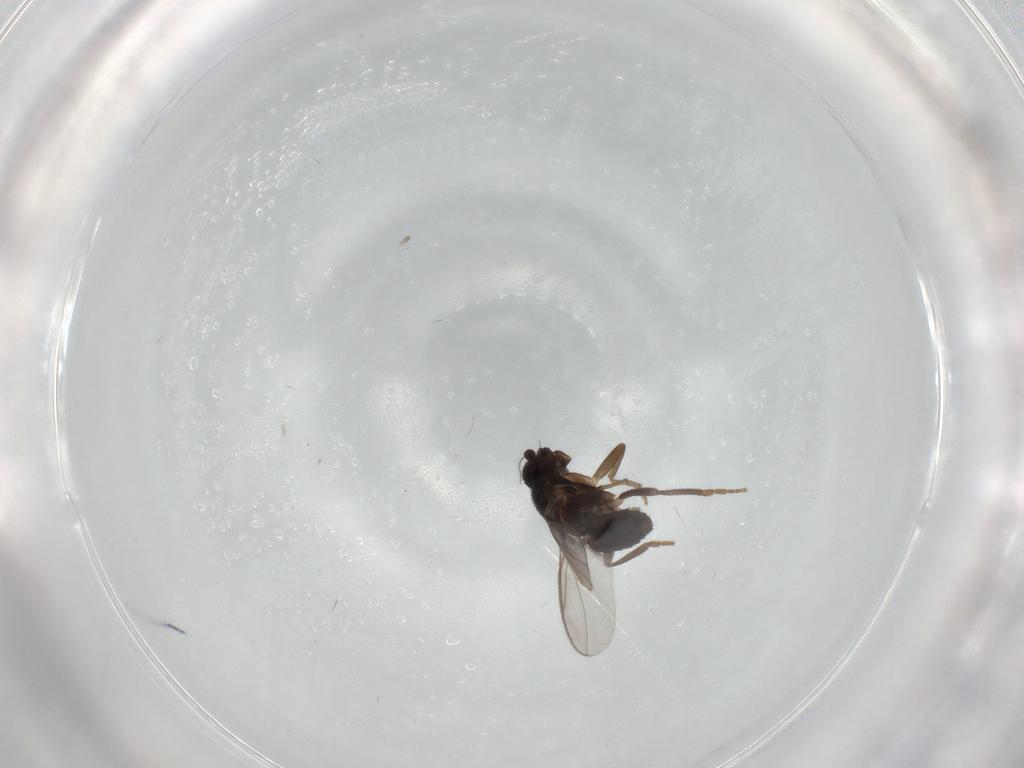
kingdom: Animalia
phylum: Arthropoda
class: Insecta
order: Diptera
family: Sphaeroceridae
